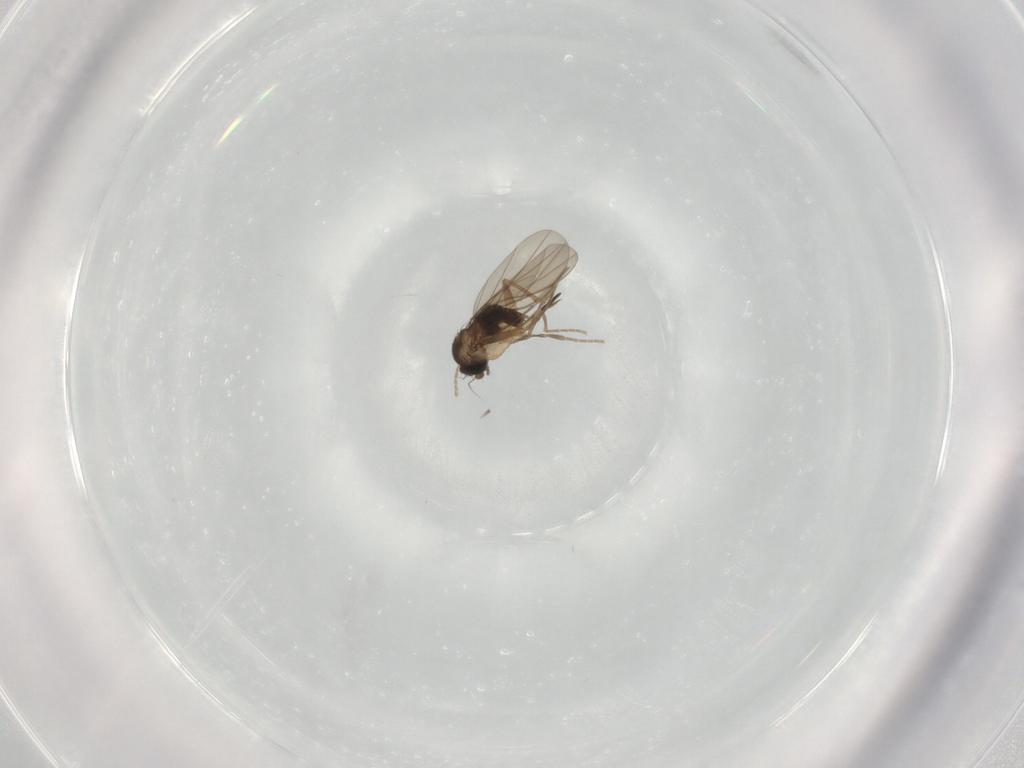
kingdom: Animalia
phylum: Arthropoda
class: Insecta
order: Diptera
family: Phoridae
